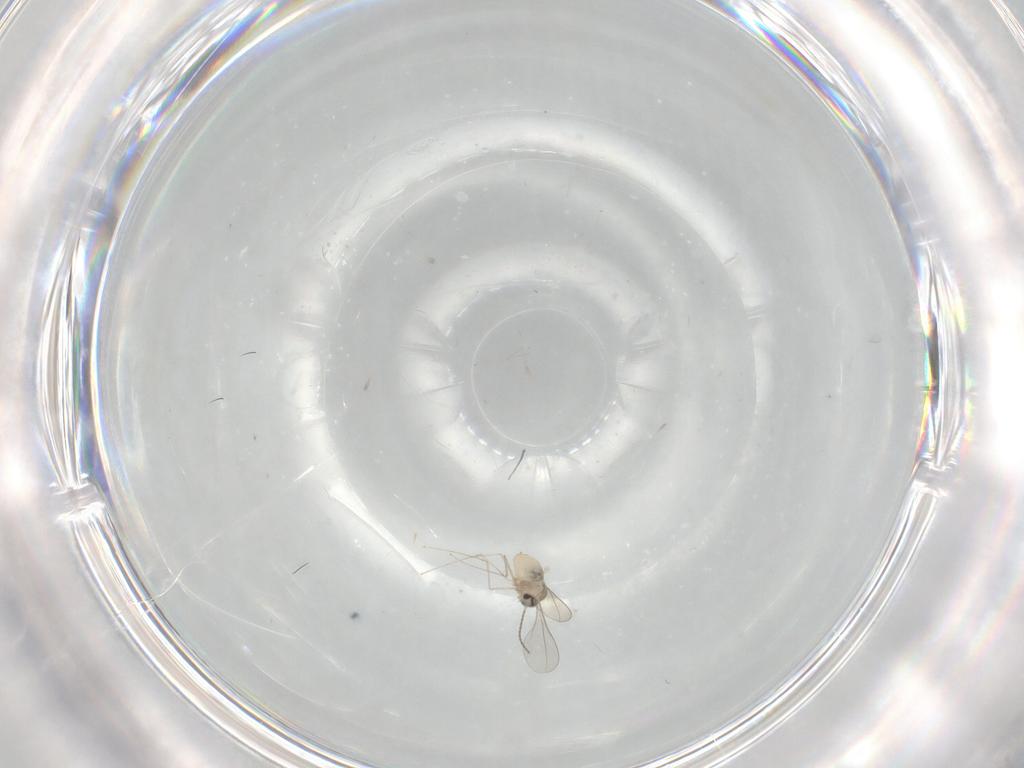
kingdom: Animalia
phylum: Arthropoda
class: Insecta
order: Diptera
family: Cecidomyiidae
